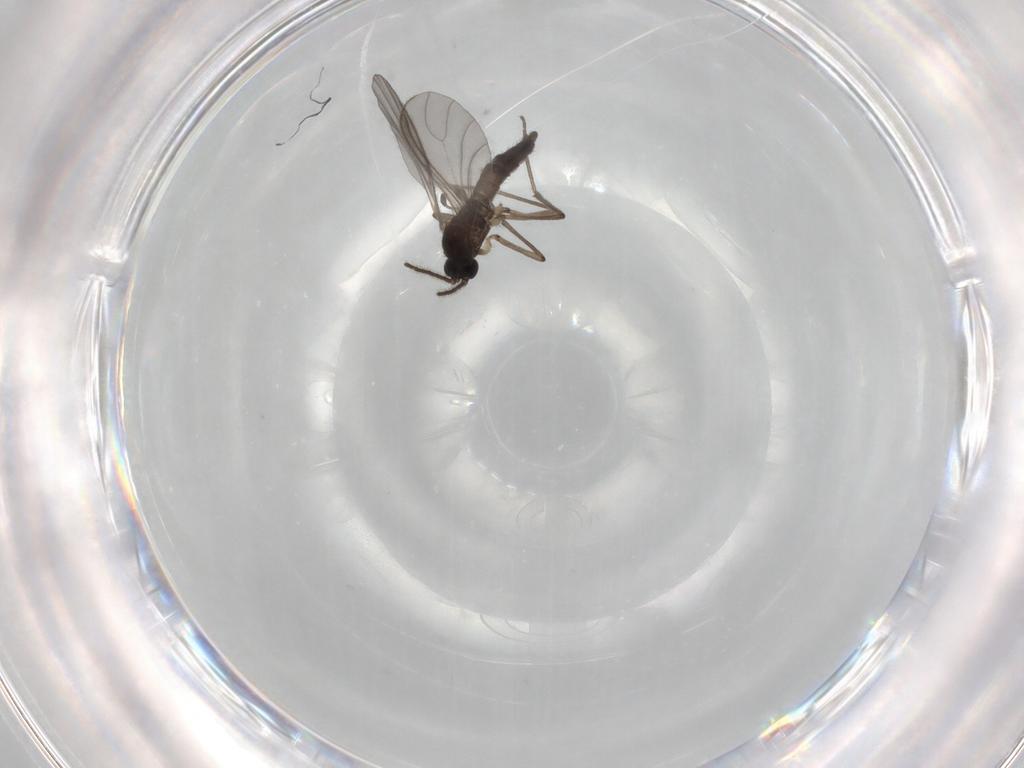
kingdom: Animalia
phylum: Arthropoda
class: Insecta
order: Diptera
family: Sciaridae
